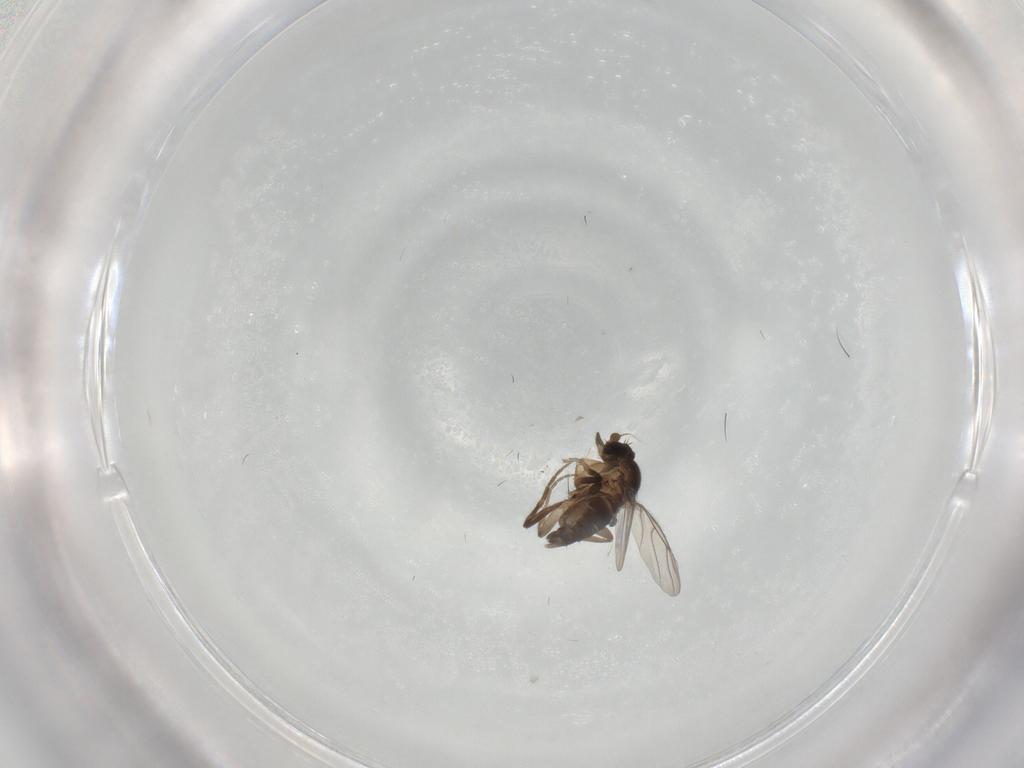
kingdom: Animalia
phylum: Arthropoda
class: Insecta
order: Diptera
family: Phoridae
